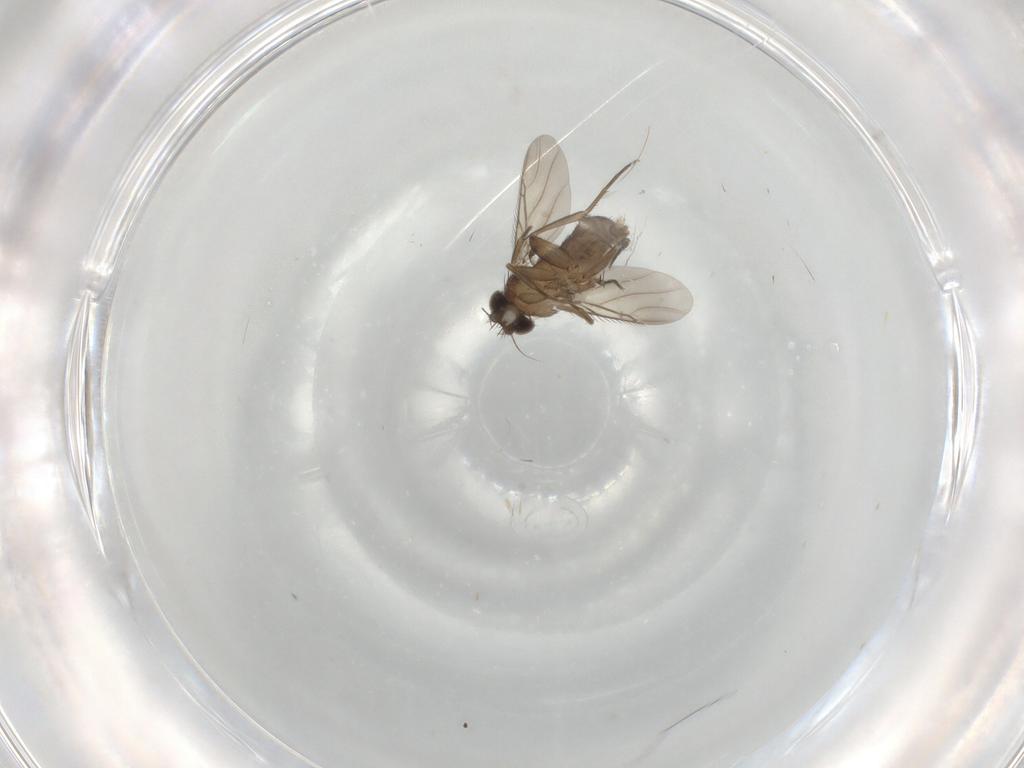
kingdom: Animalia
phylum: Arthropoda
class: Insecta
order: Diptera
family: Phoridae
